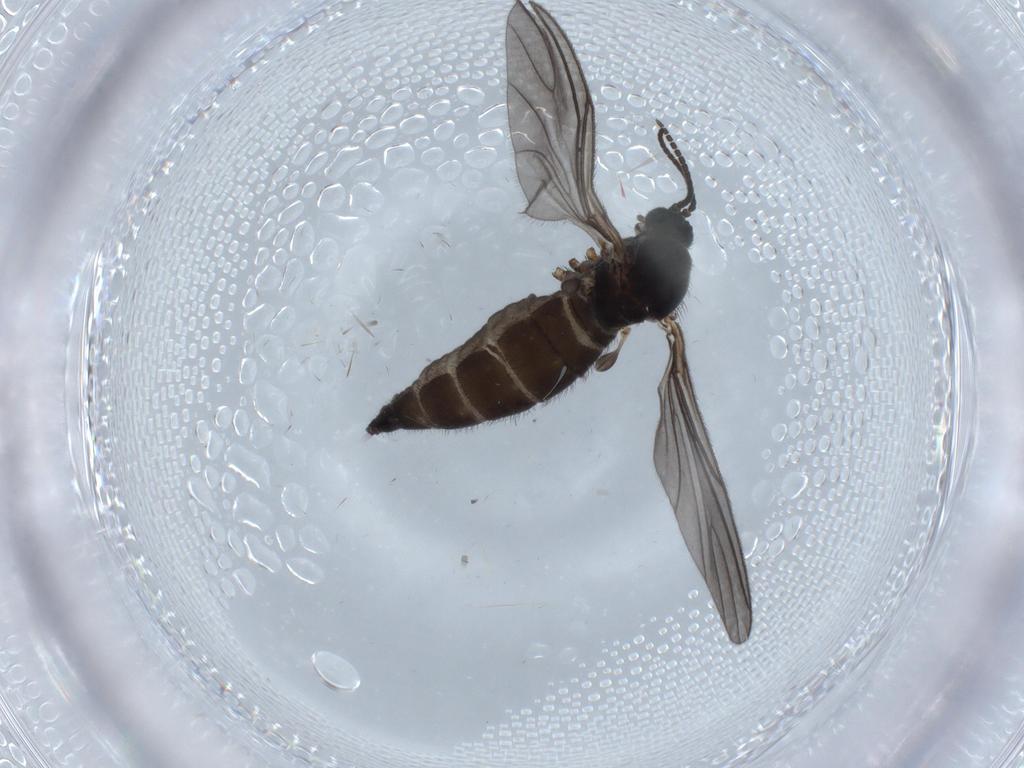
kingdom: Animalia
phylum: Arthropoda
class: Insecta
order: Diptera
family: Sciaridae
